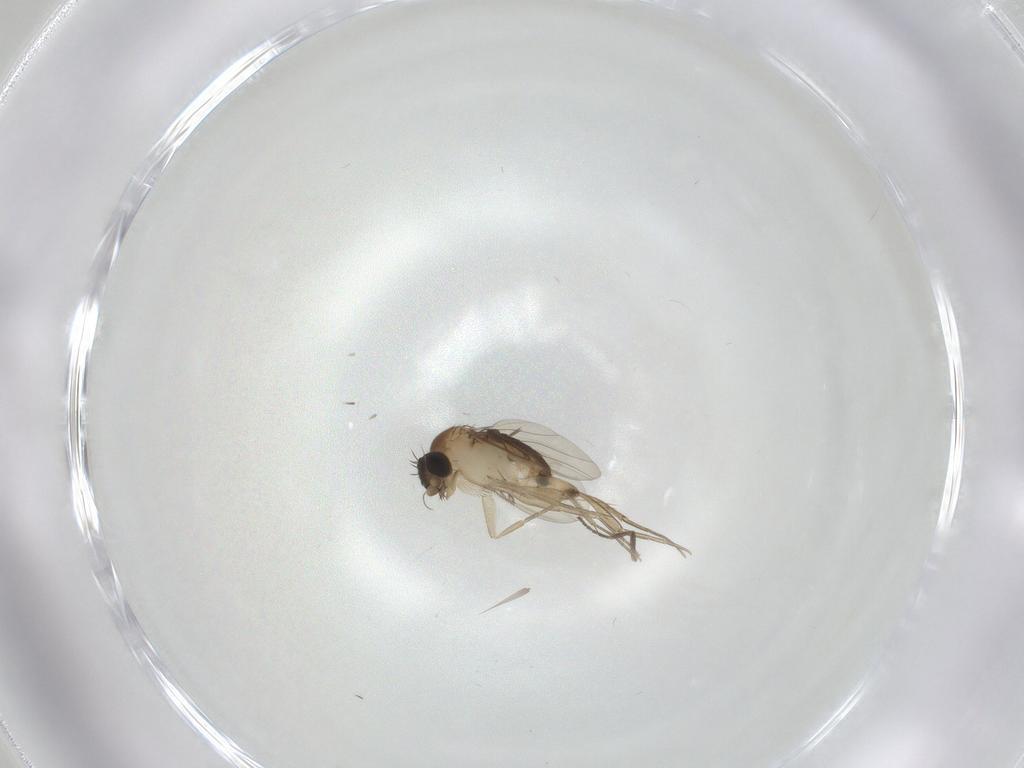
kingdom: Animalia
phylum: Arthropoda
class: Insecta
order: Diptera
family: Phoridae
